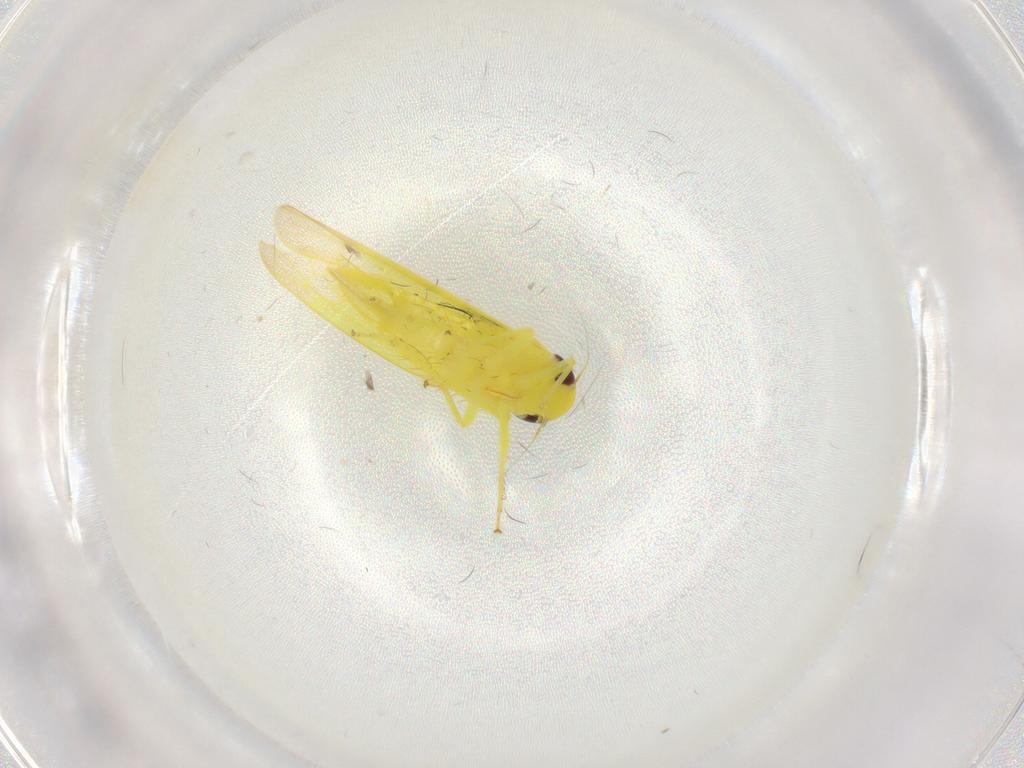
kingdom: Animalia
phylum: Arthropoda
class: Insecta
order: Hemiptera
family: Cicadellidae
